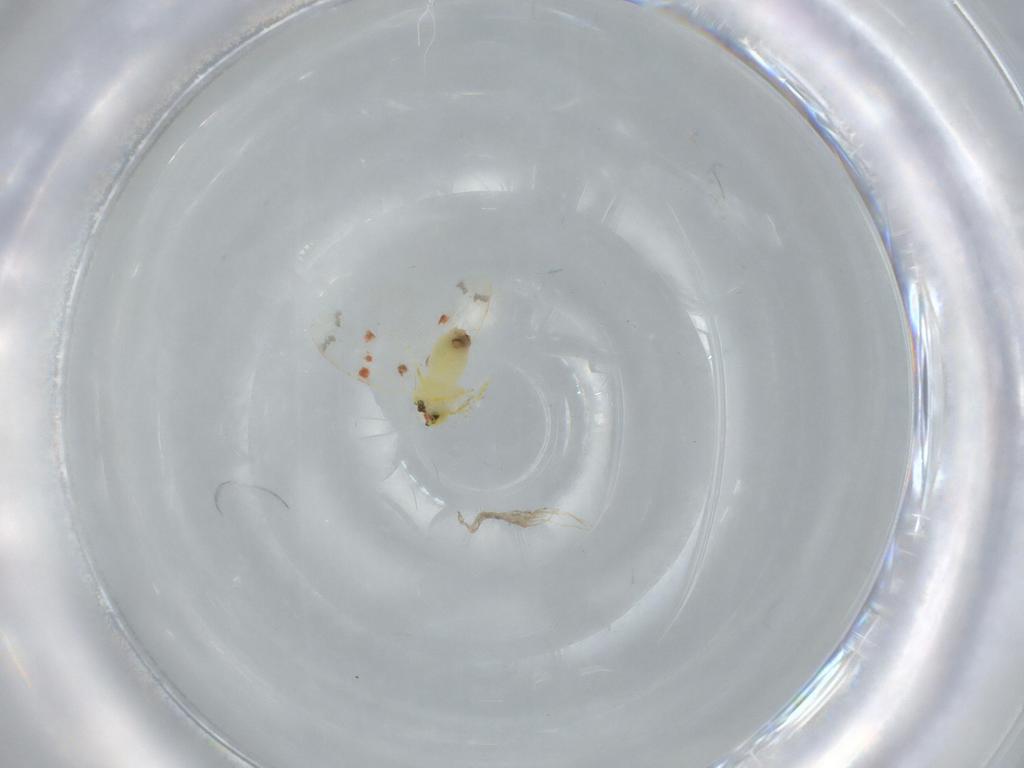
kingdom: Animalia
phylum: Arthropoda
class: Insecta
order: Hemiptera
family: Aleyrodidae
